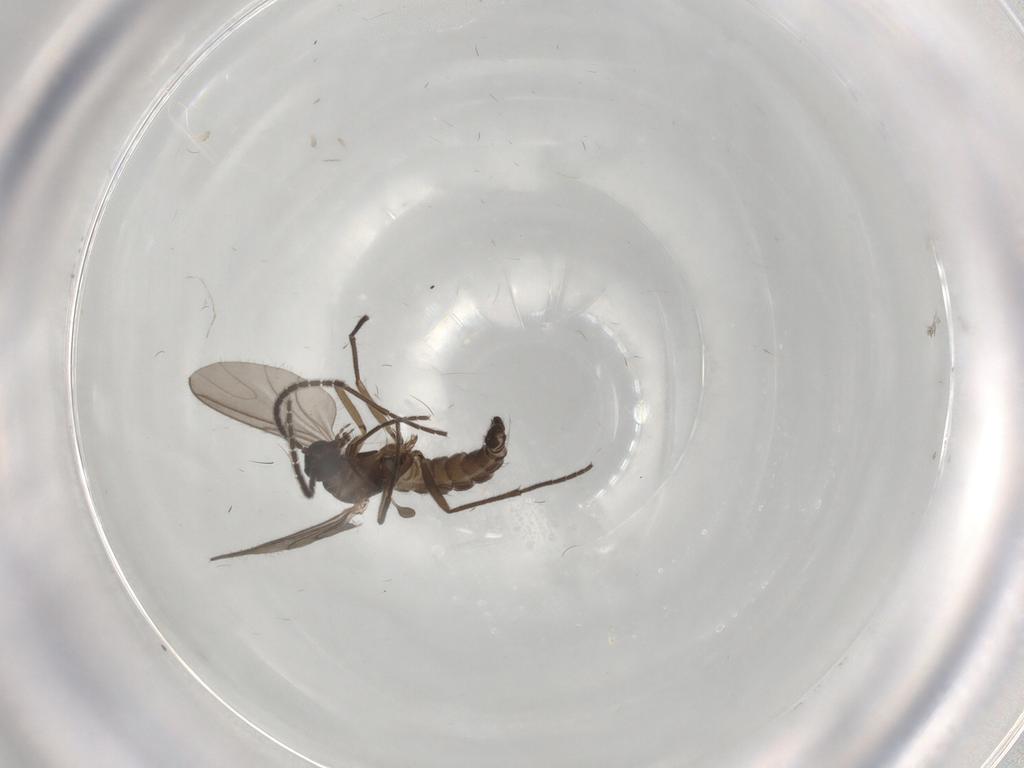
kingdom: Animalia
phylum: Arthropoda
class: Insecta
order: Diptera
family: Sciaridae
